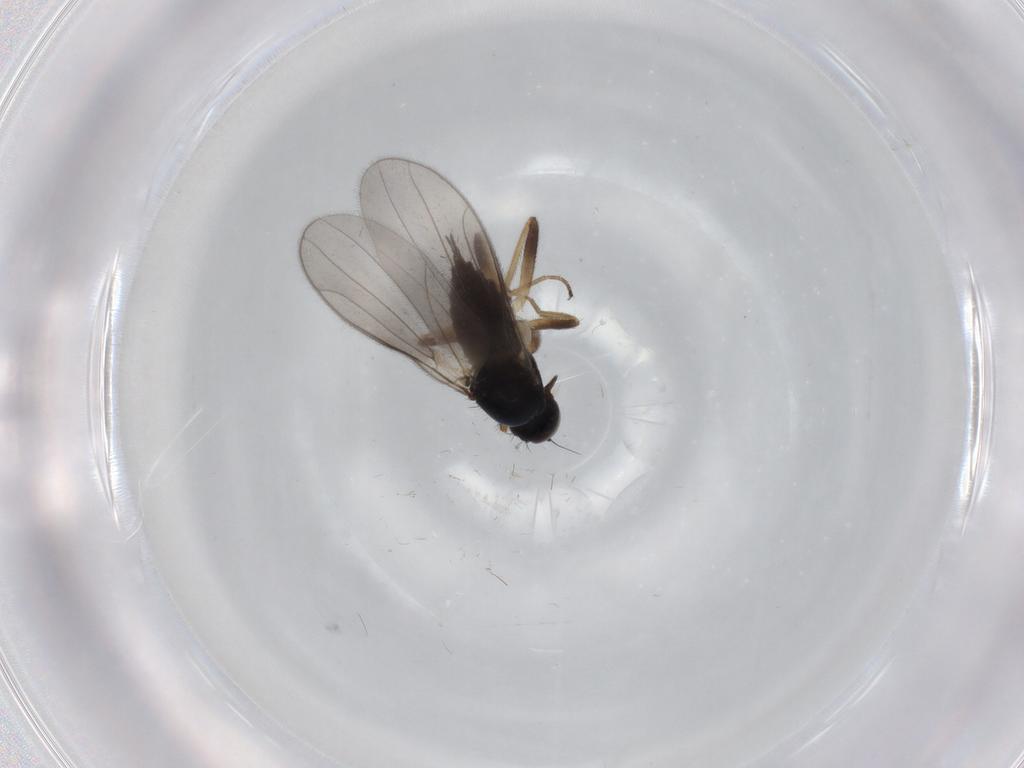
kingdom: Animalia
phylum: Arthropoda
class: Insecta
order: Diptera
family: Hybotidae
